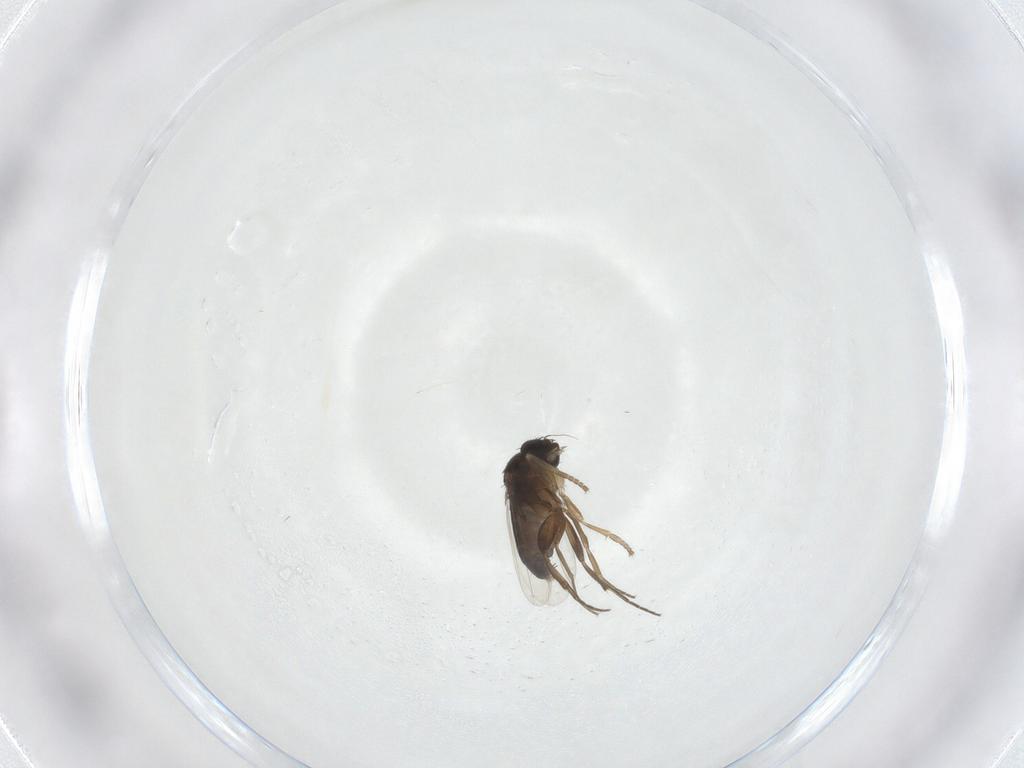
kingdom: Animalia
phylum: Arthropoda
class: Insecta
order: Diptera
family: Phoridae
